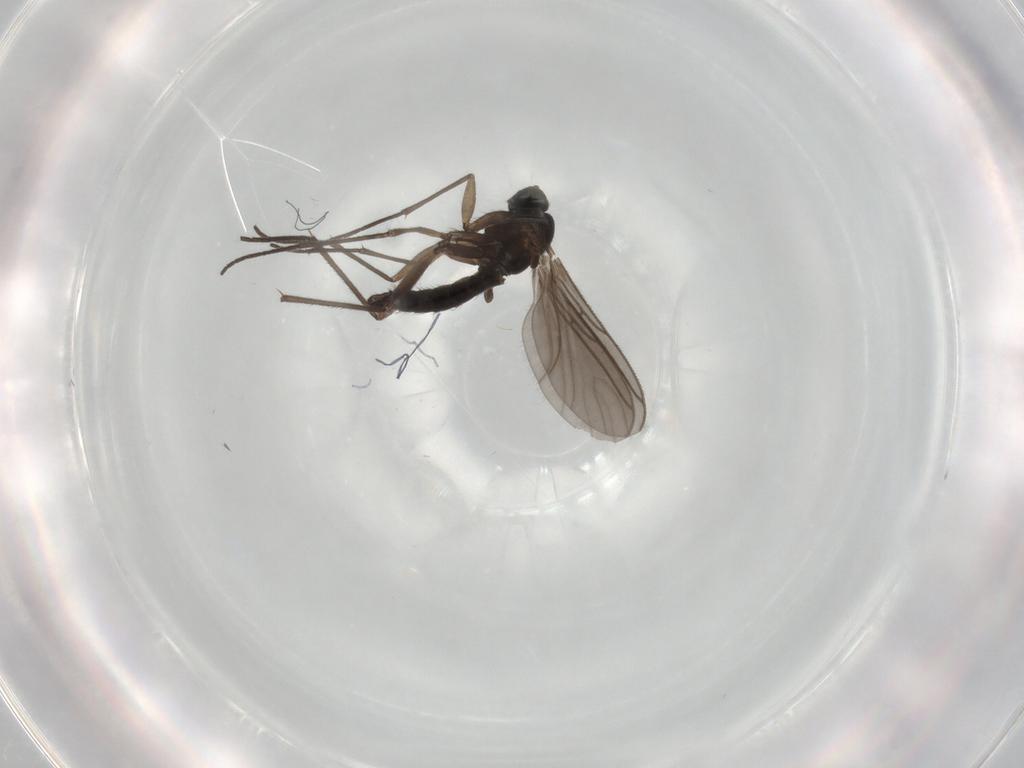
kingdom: Animalia
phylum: Arthropoda
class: Insecta
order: Diptera
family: Sciaridae
